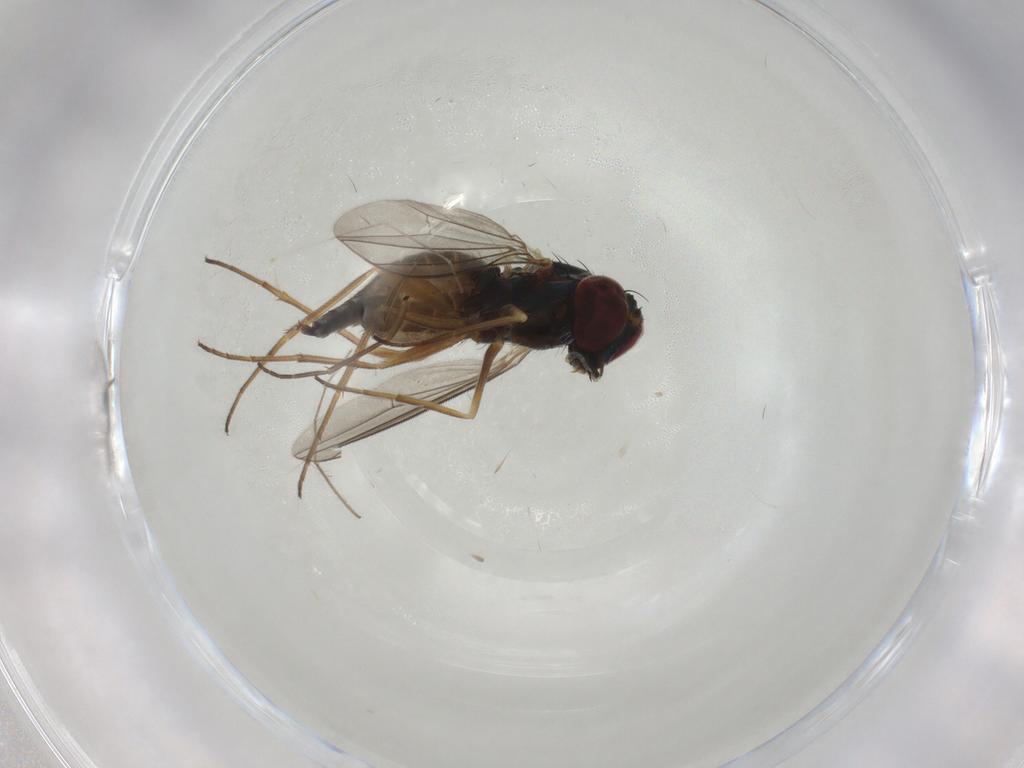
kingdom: Animalia
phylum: Arthropoda
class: Insecta
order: Diptera
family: Dolichopodidae
